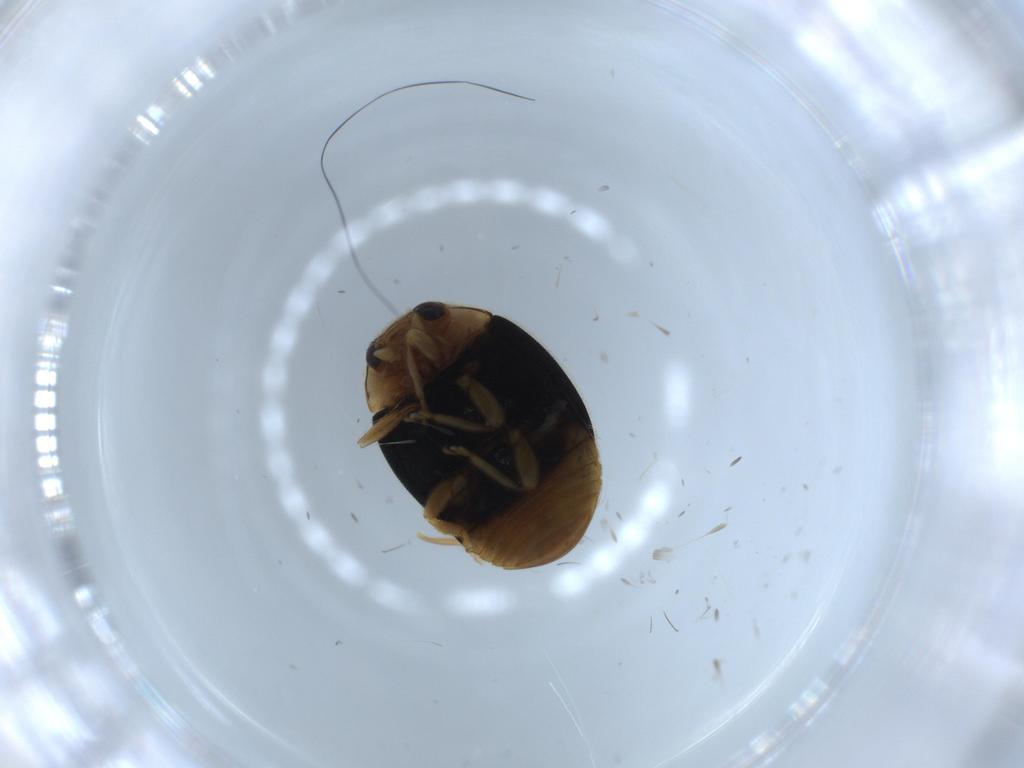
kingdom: Animalia
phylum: Arthropoda
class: Insecta
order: Coleoptera
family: Coccinellidae
